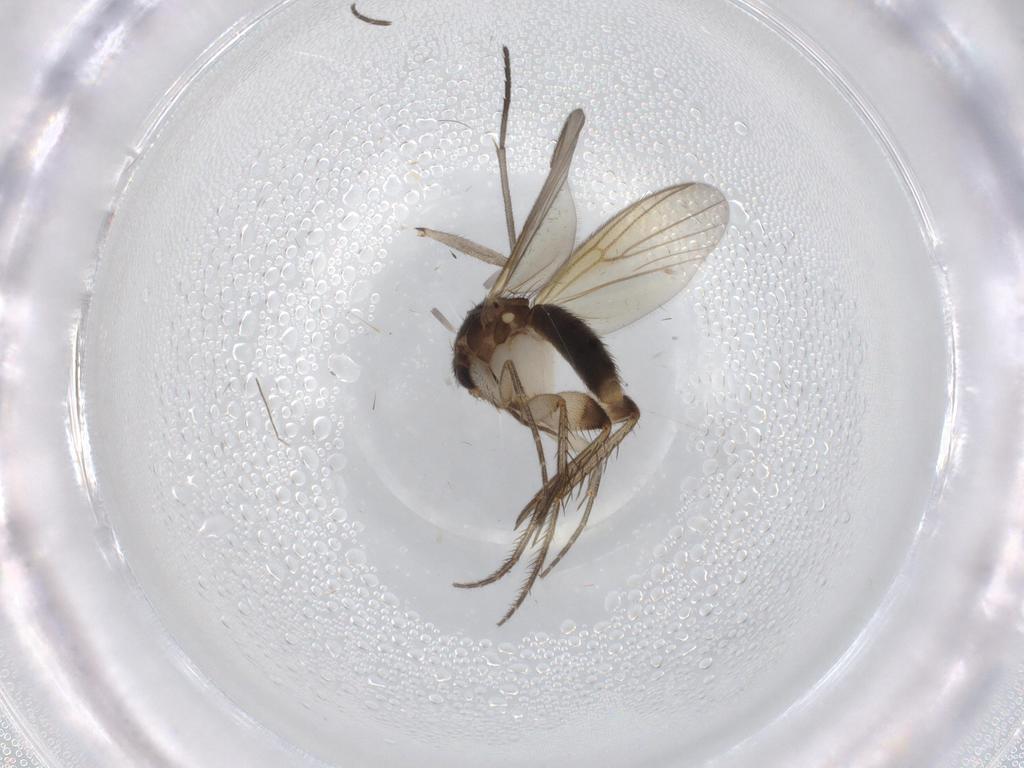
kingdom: Animalia
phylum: Arthropoda
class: Insecta
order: Diptera
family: Sciaridae
